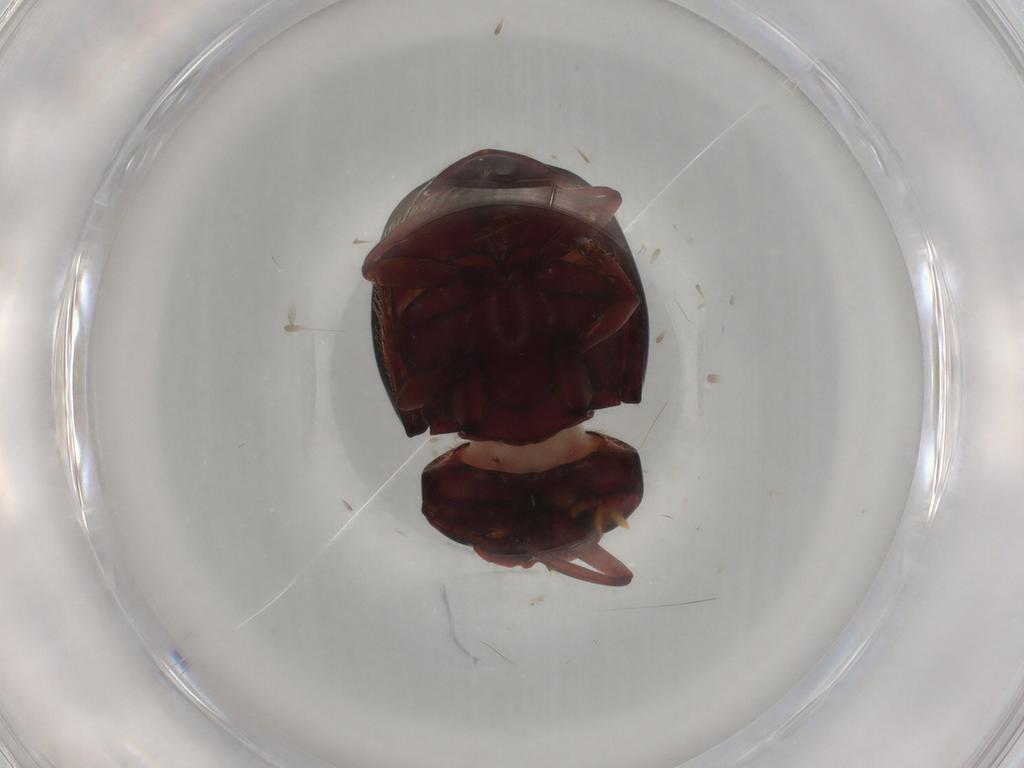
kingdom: Animalia
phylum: Arthropoda
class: Insecta
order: Coleoptera
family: Scarabaeidae
